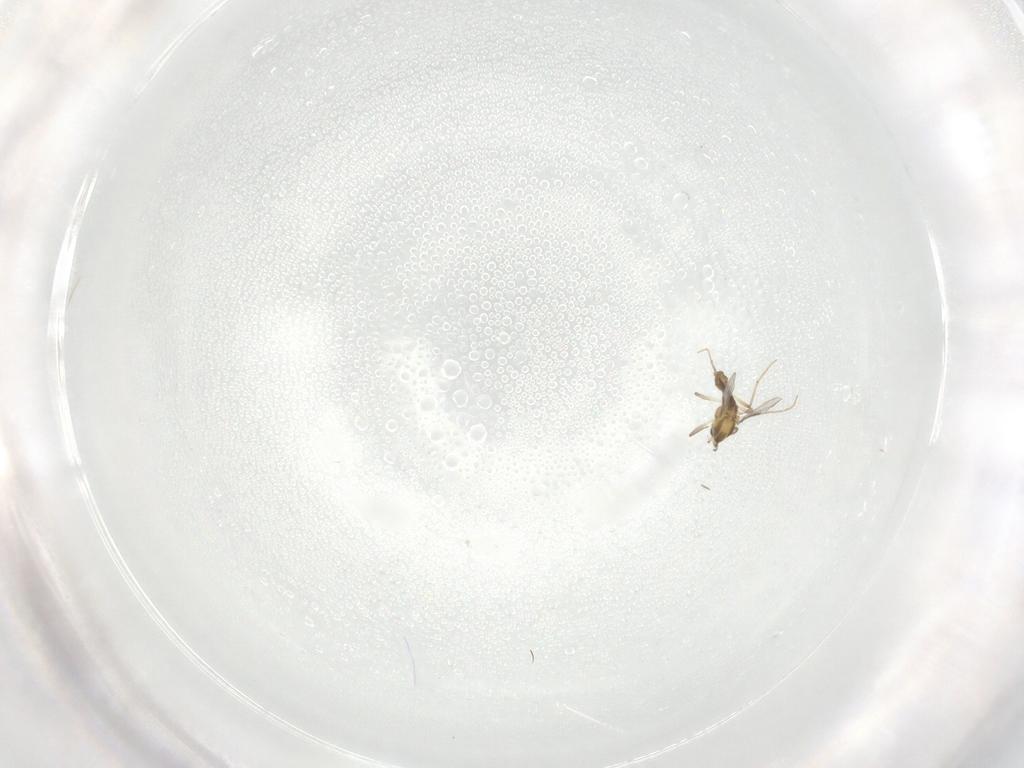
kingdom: Animalia
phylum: Arthropoda
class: Insecta
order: Diptera
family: Chironomidae
